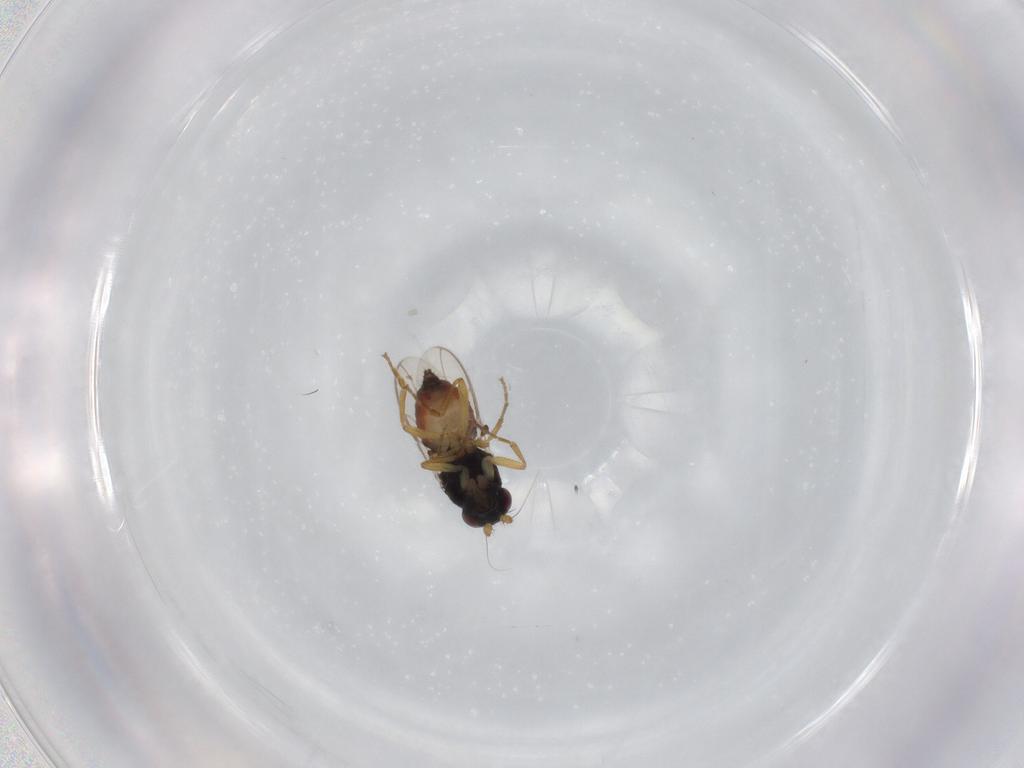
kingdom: Animalia
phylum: Arthropoda
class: Insecta
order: Diptera
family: Sphaeroceridae
